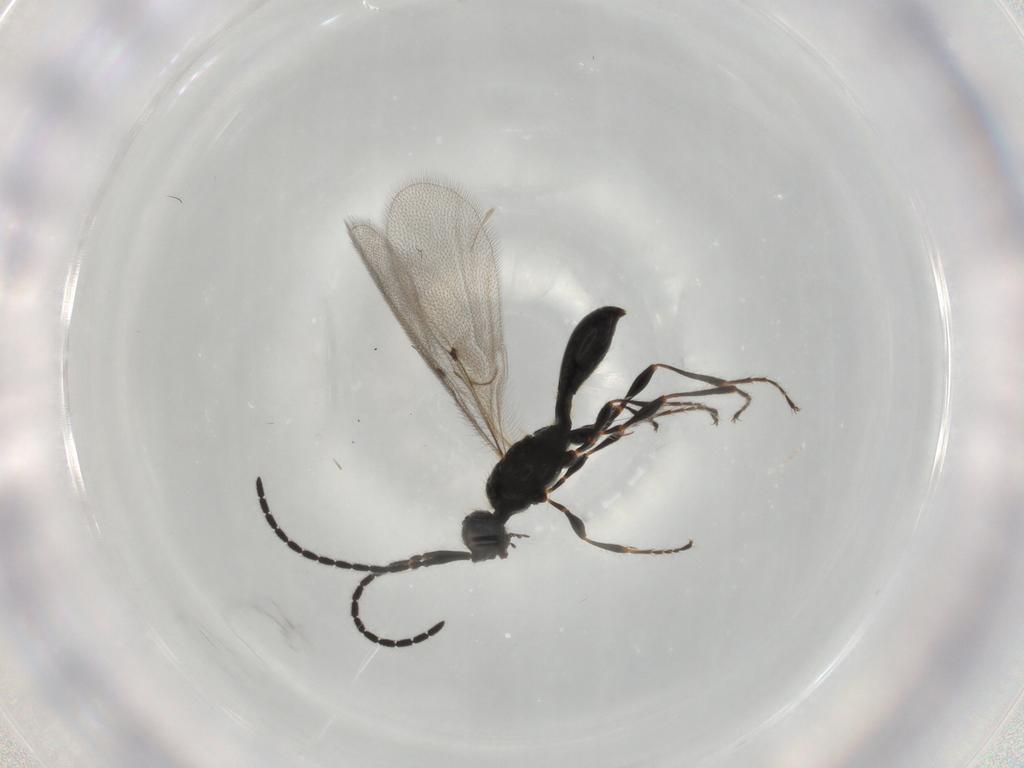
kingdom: Animalia
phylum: Arthropoda
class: Insecta
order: Hymenoptera
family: Diapriidae
